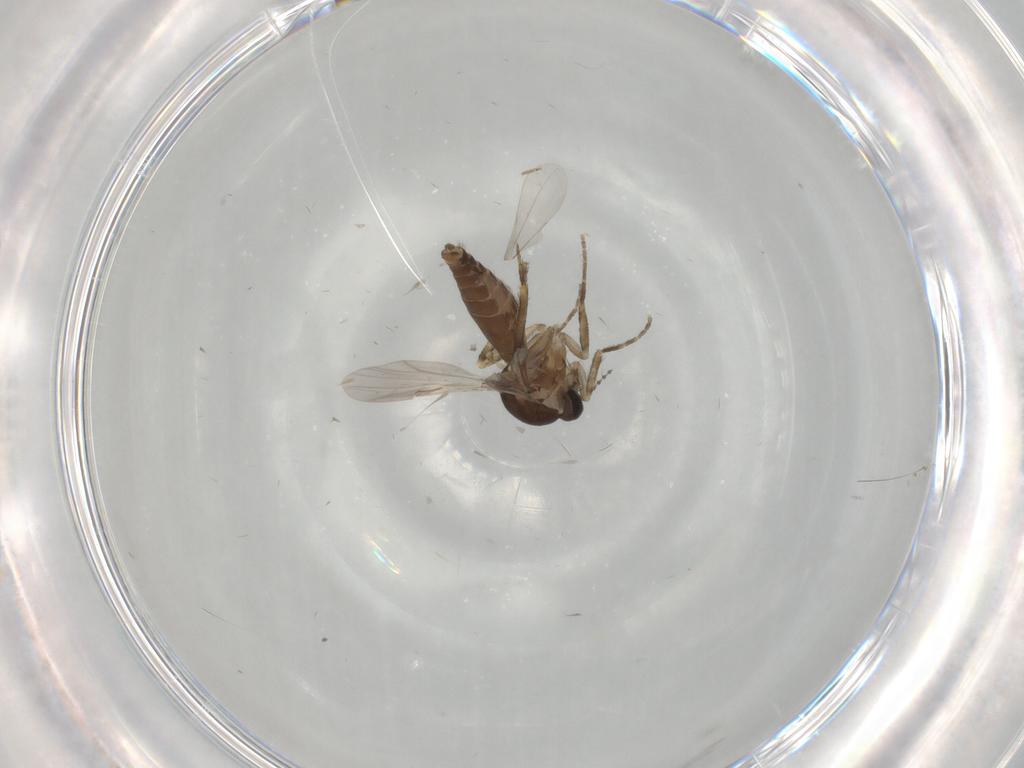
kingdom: Animalia
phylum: Arthropoda
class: Insecta
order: Diptera
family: Ceratopogonidae
